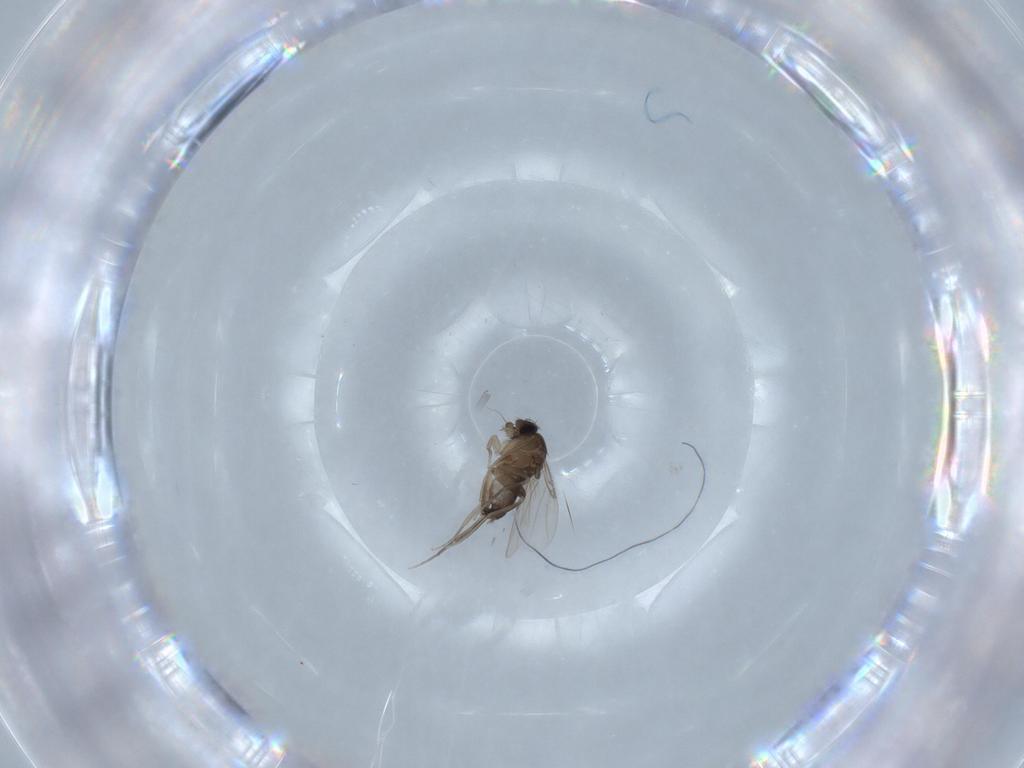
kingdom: Animalia
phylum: Arthropoda
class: Insecta
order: Diptera
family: Phoridae
